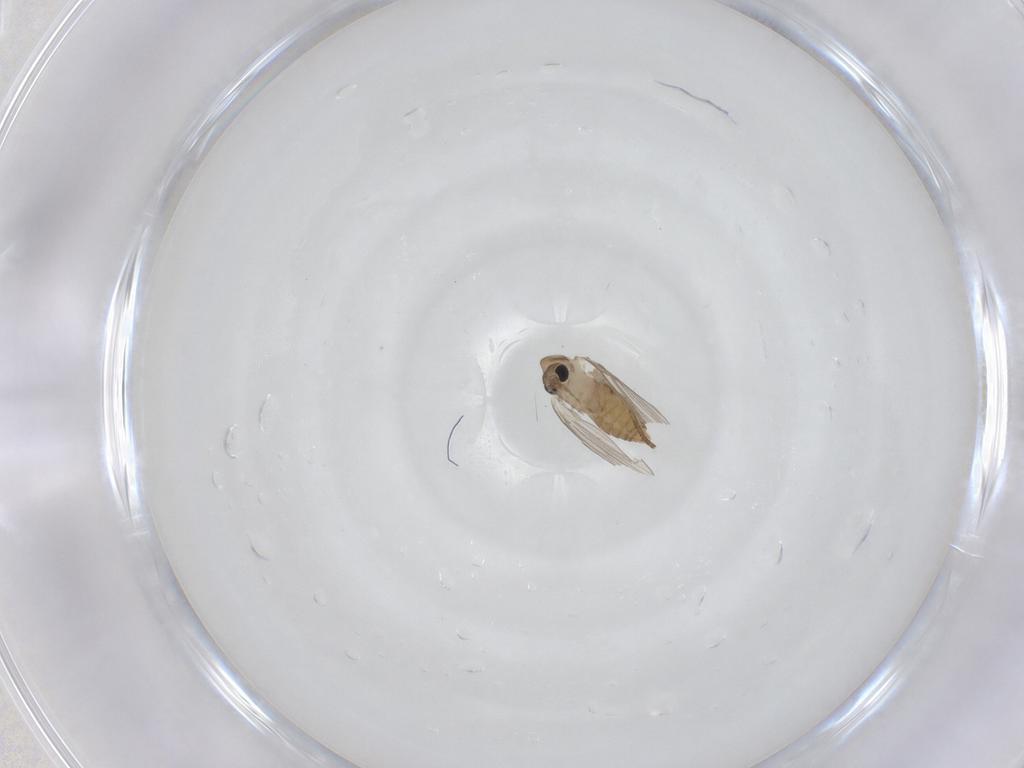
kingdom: Animalia
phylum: Arthropoda
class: Insecta
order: Diptera
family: Psychodidae
